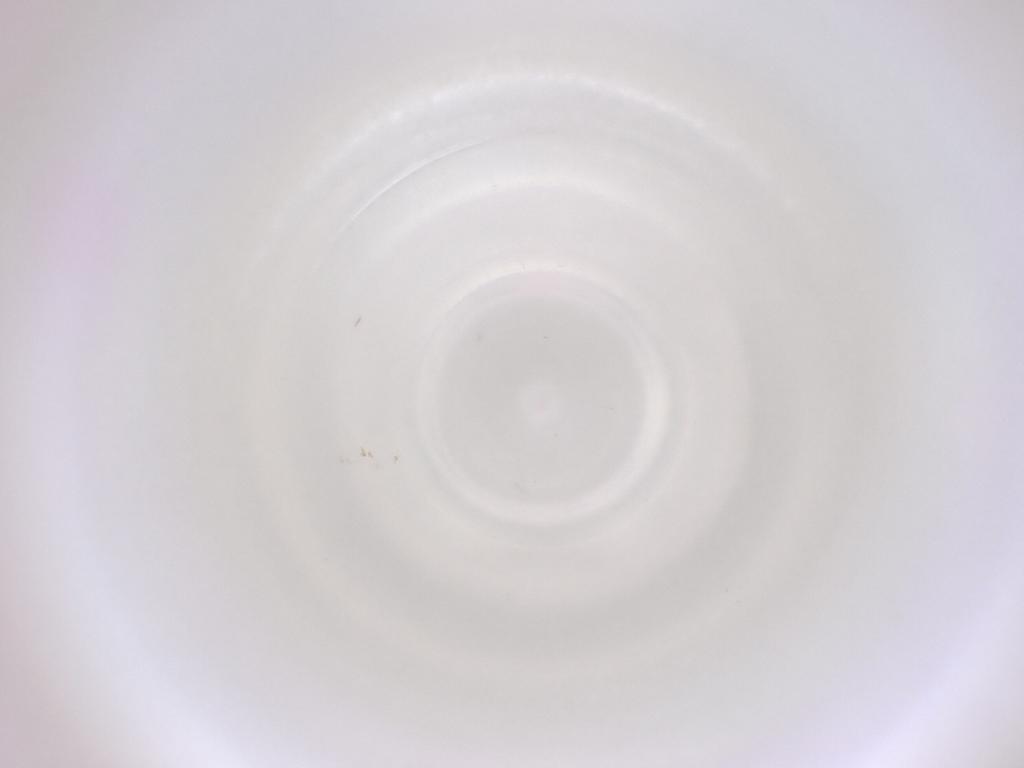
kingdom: Animalia
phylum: Arthropoda
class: Insecta
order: Diptera
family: Cecidomyiidae
